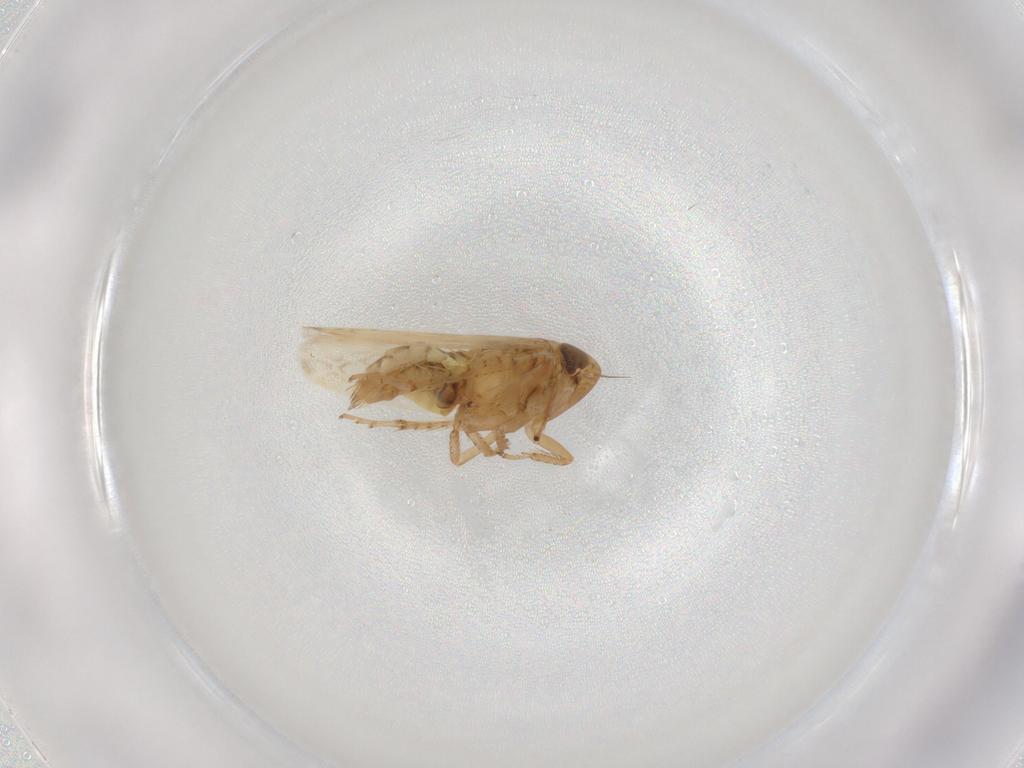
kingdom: Animalia
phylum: Arthropoda
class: Insecta
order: Hemiptera
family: Cicadellidae
